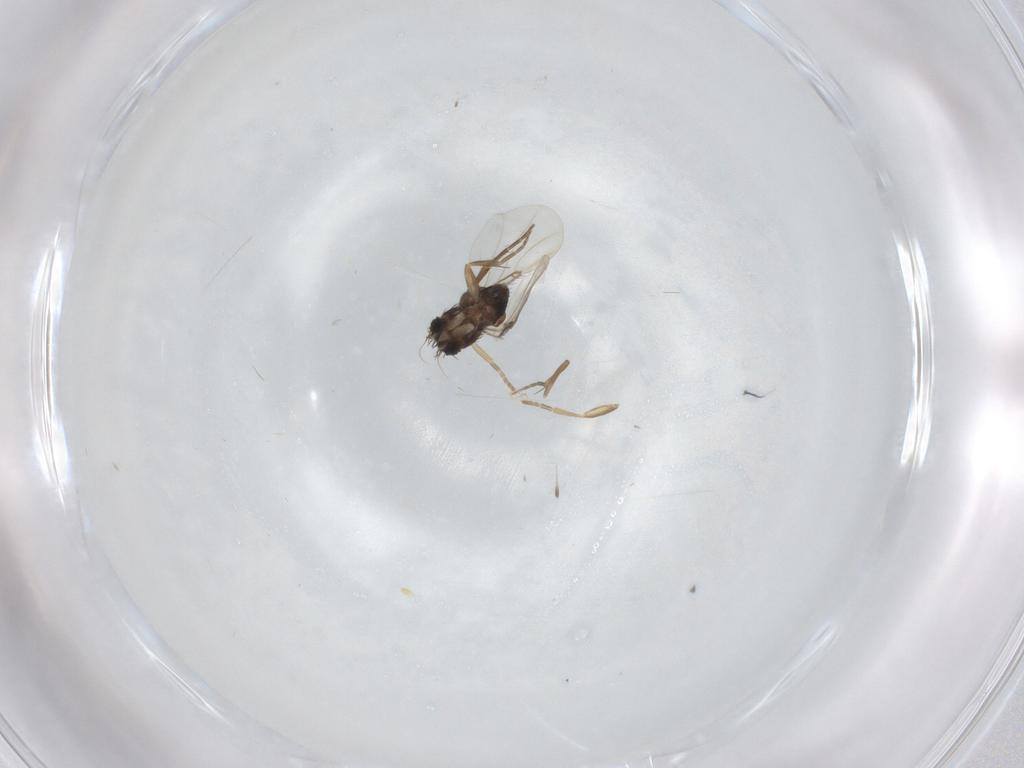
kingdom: Animalia
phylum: Arthropoda
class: Insecta
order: Diptera
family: Phoridae
